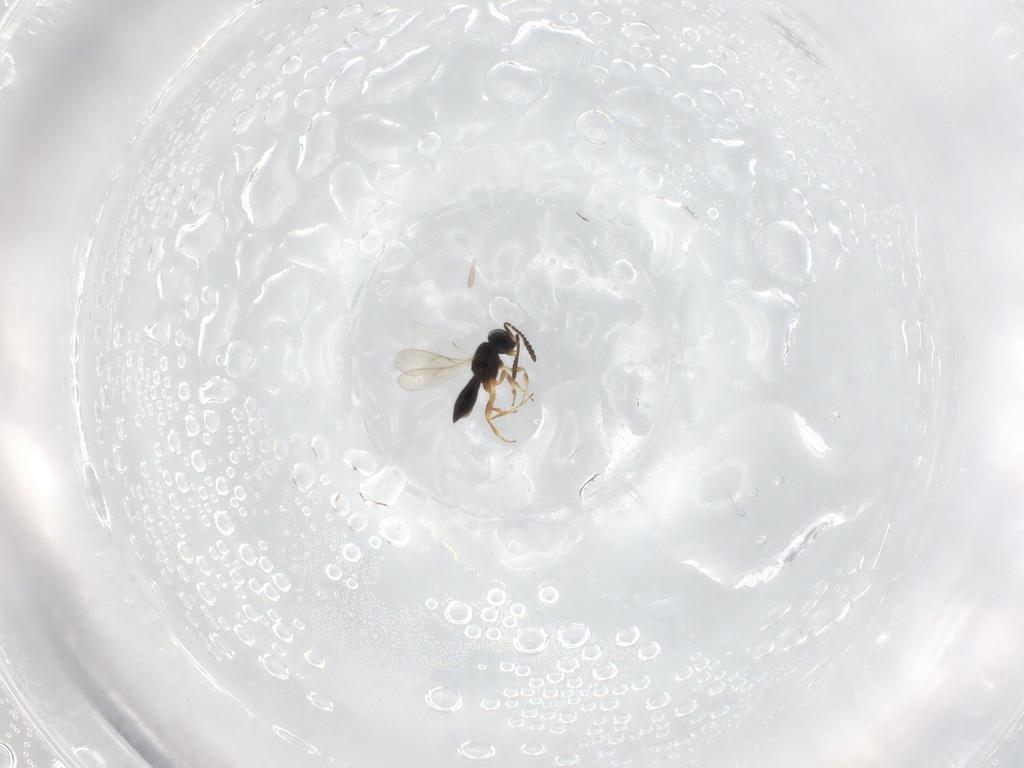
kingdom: Animalia
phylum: Arthropoda
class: Insecta
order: Hymenoptera
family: Scelionidae
